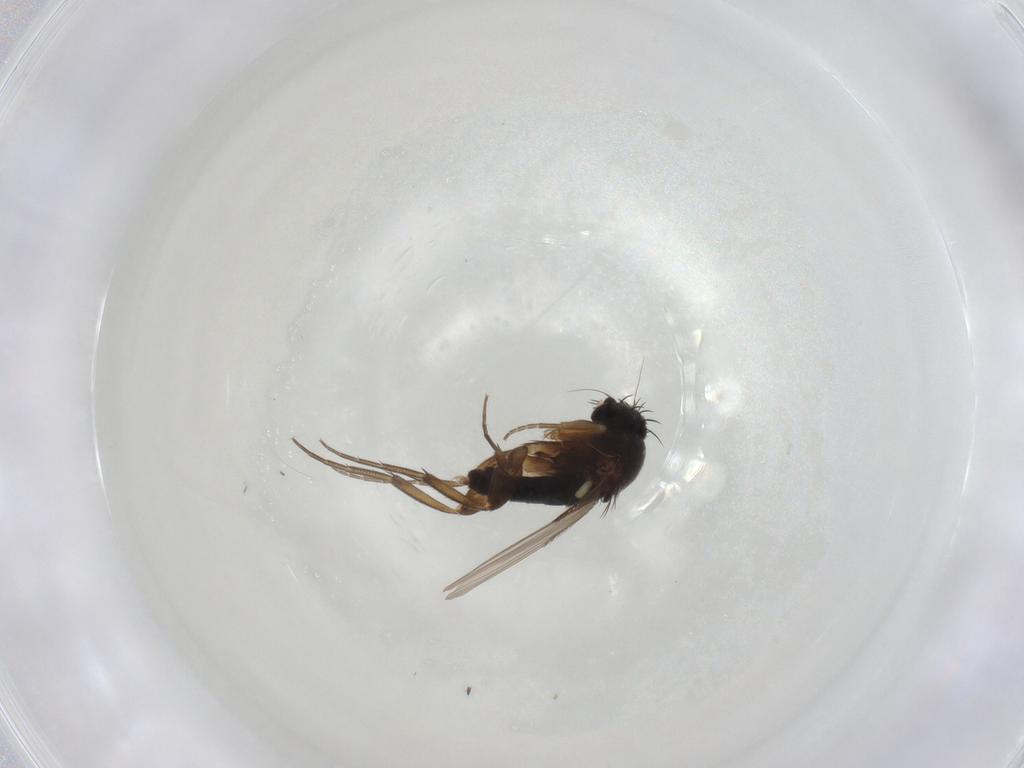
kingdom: Animalia
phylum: Arthropoda
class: Insecta
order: Diptera
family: Phoridae
